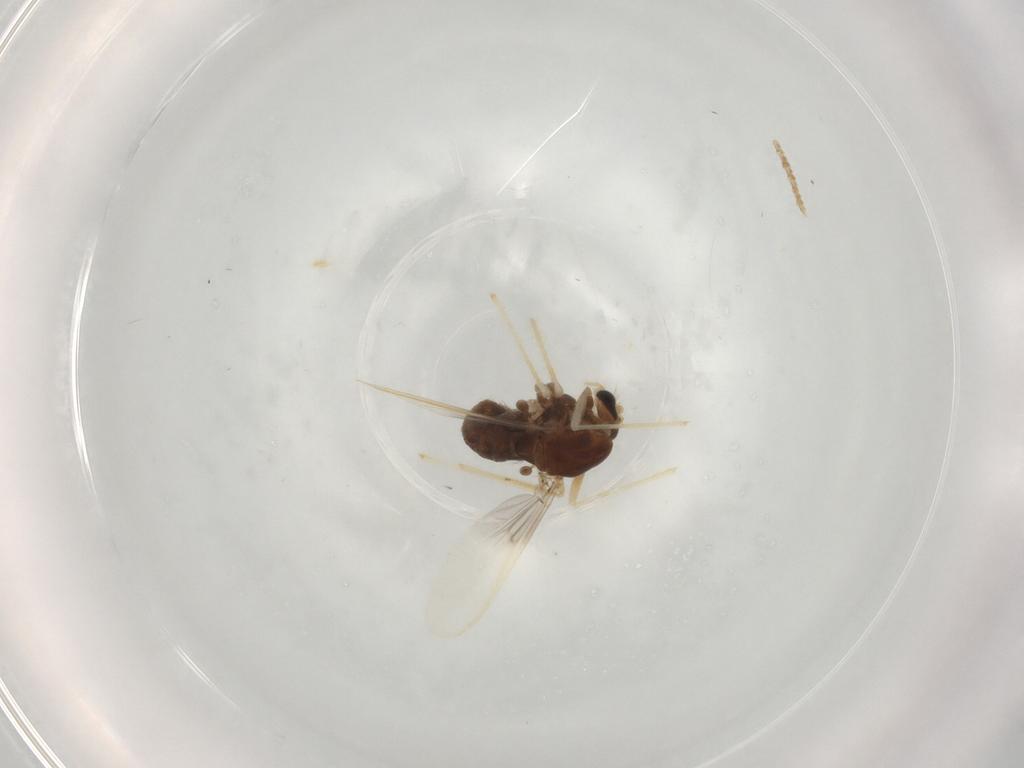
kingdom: Animalia
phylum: Arthropoda
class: Insecta
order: Diptera
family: Chironomidae
